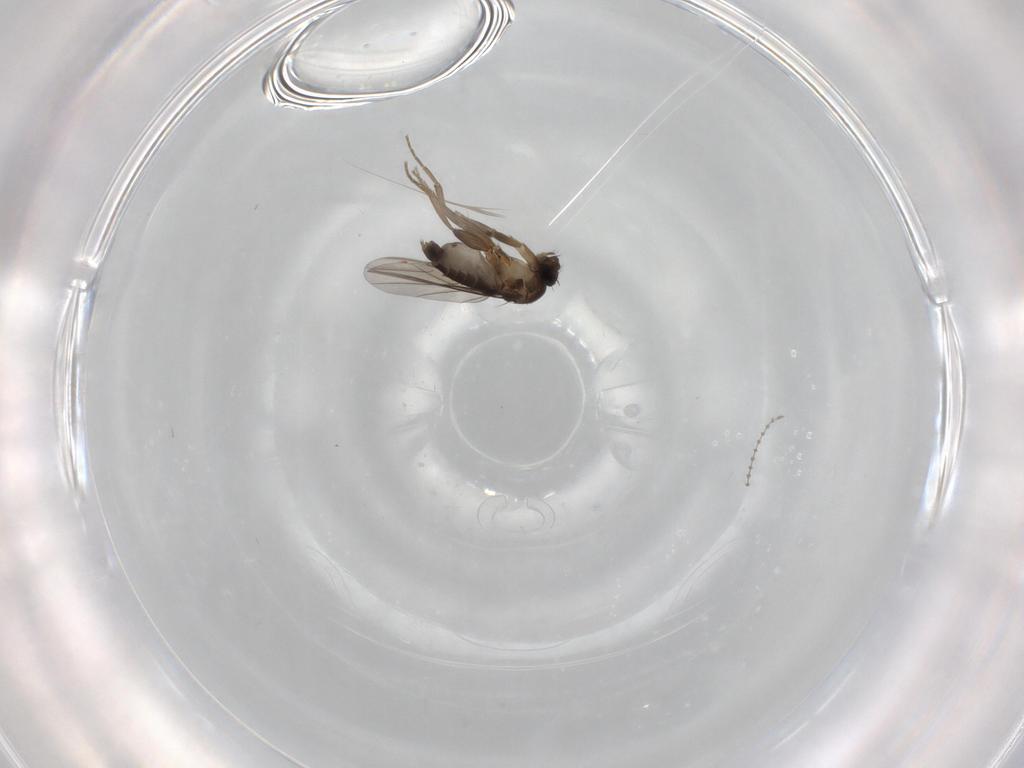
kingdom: Animalia
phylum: Arthropoda
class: Insecta
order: Diptera
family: Phoridae
